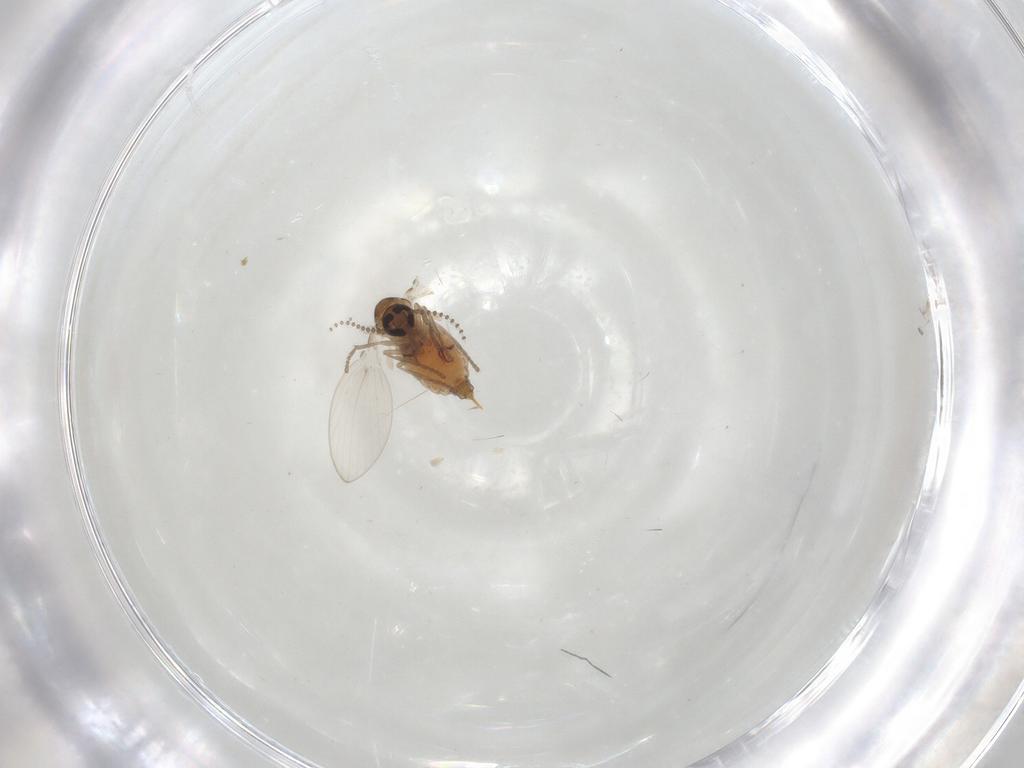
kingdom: Animalia
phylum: Arthropoda
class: Insecta
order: Diptera
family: Psychodidae
